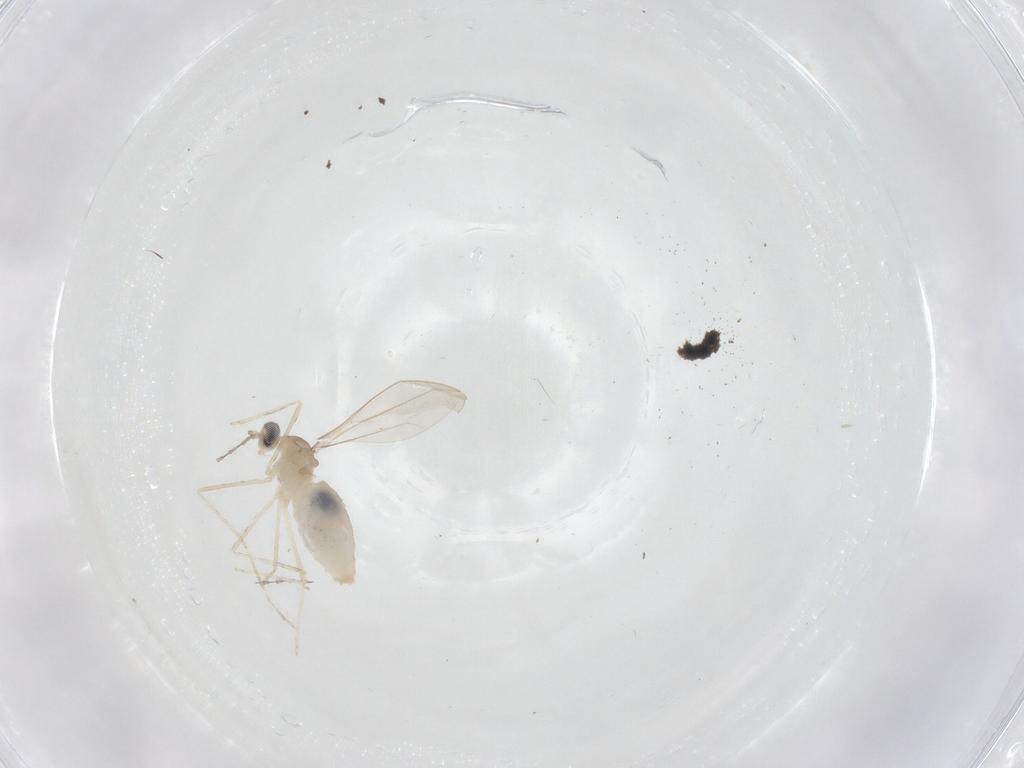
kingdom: Animalia
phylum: Arthropoda
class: Insecta
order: Diptera
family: Cecidomyiidae
